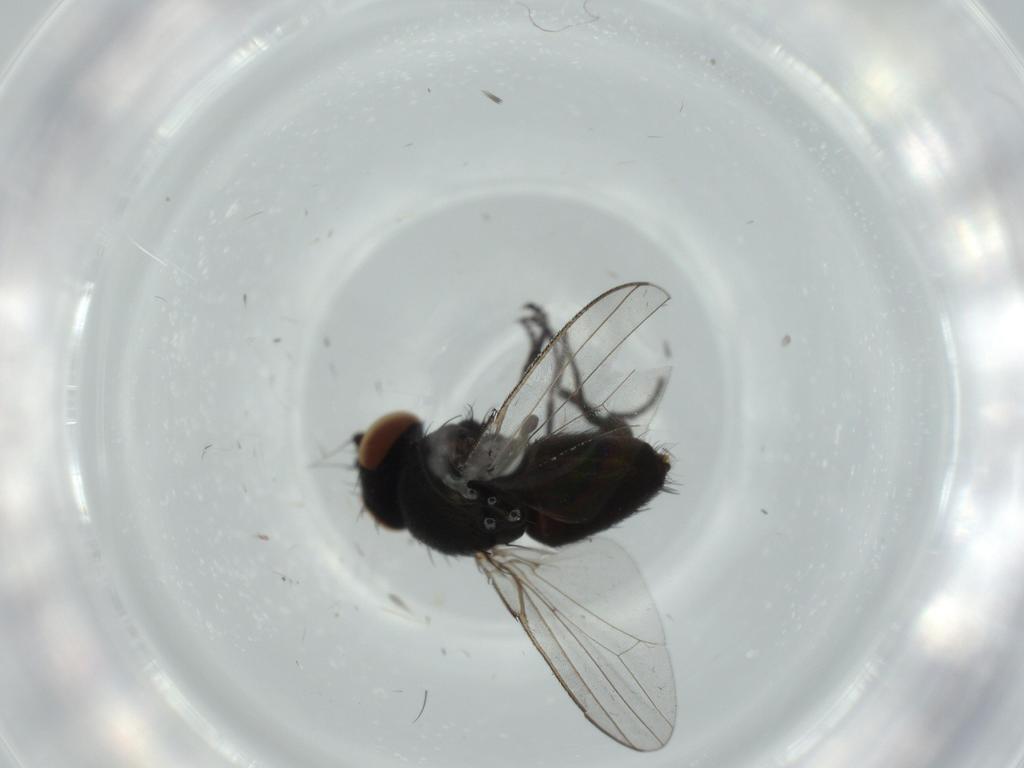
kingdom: Animalia
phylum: Arthropoda
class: Insecta
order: Diptera
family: Milichiidae
